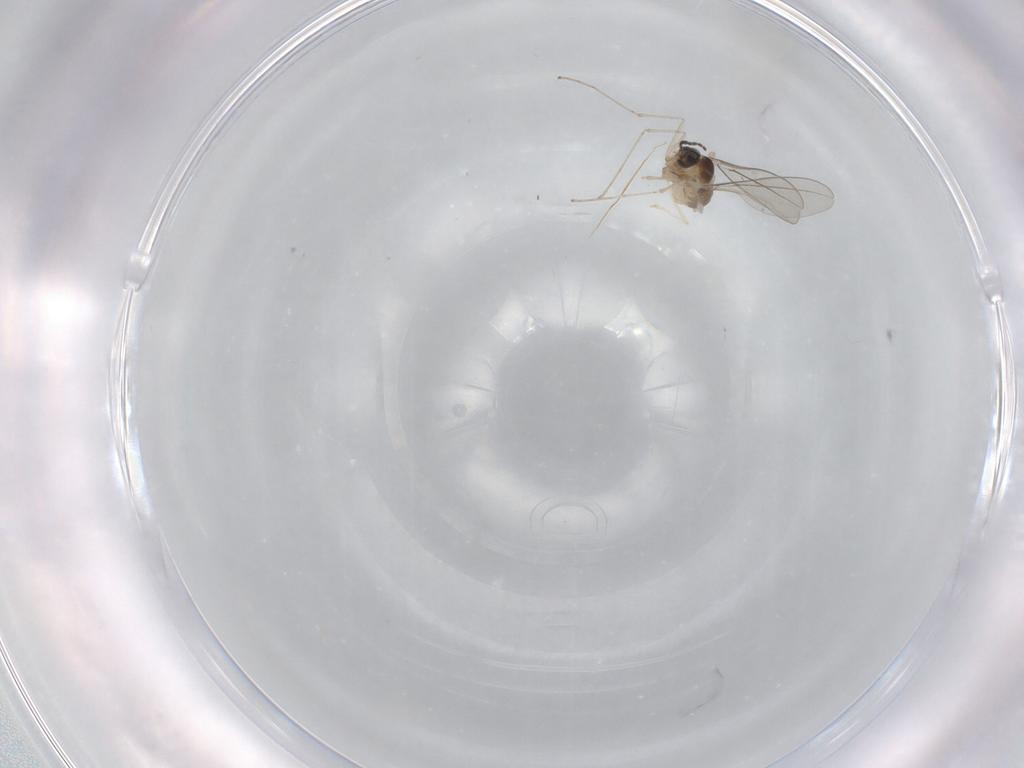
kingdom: Animalia
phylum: Arthropoda
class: Insecta
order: Diptera
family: Cecidomyiidae
